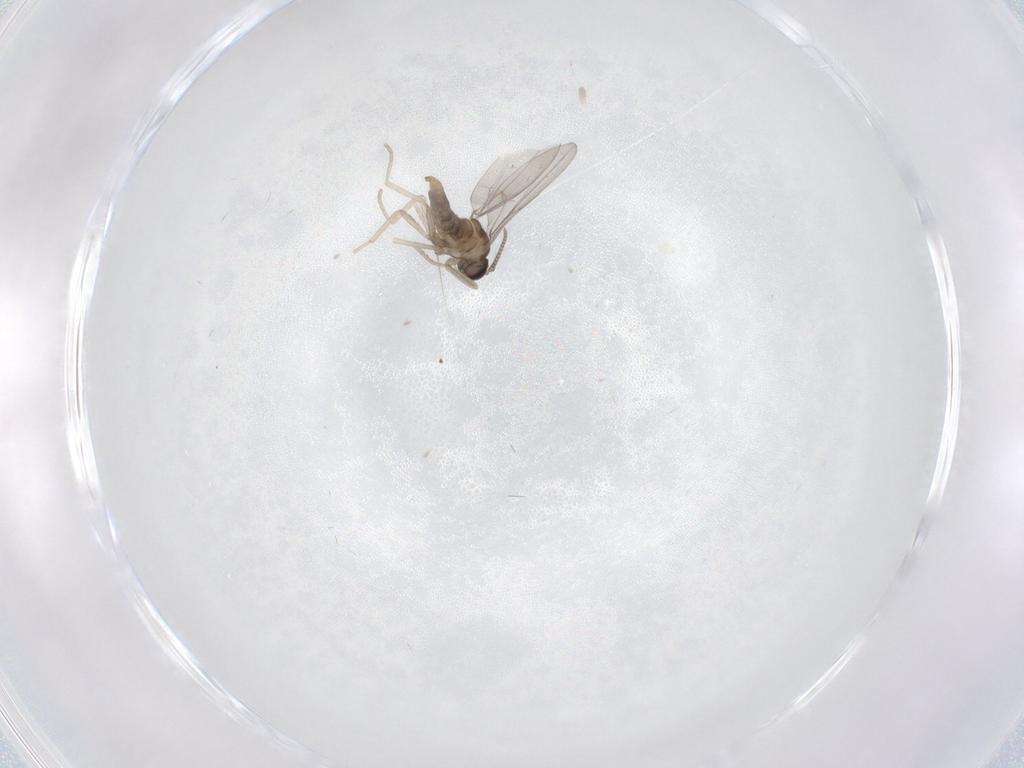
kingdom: Animalia
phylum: Arthropoda
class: Insecta
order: Diptera
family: Cecidomyiidae
